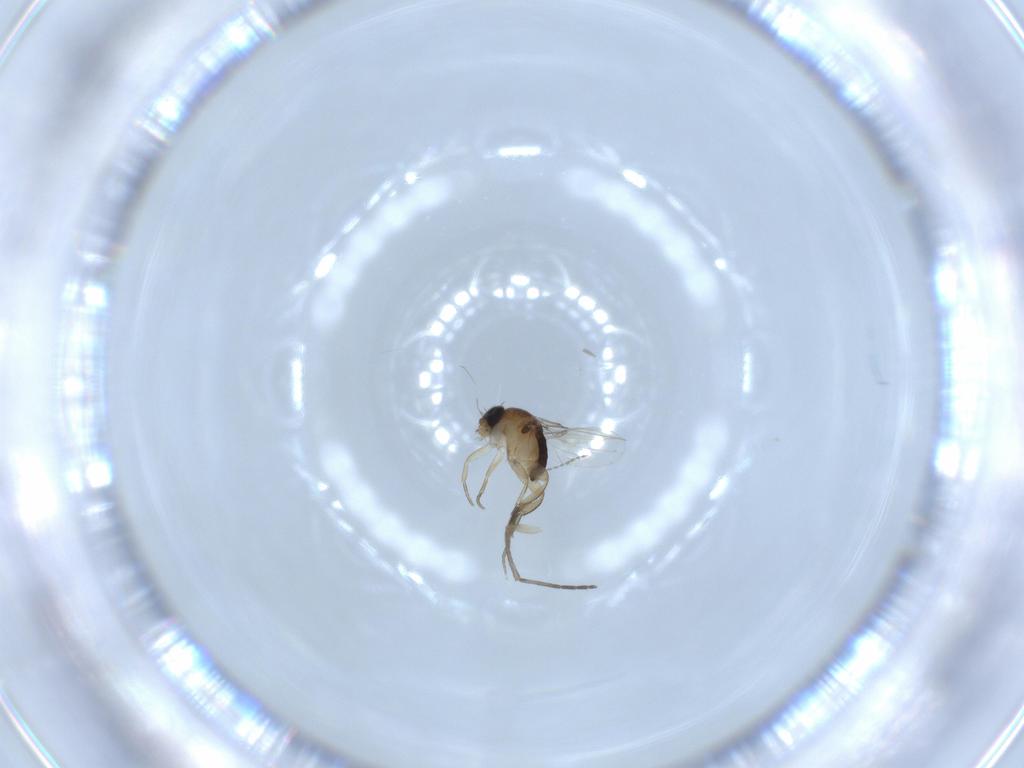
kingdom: Animalia
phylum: Arthropoda
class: Insecta
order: Diptera
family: Phoridae
